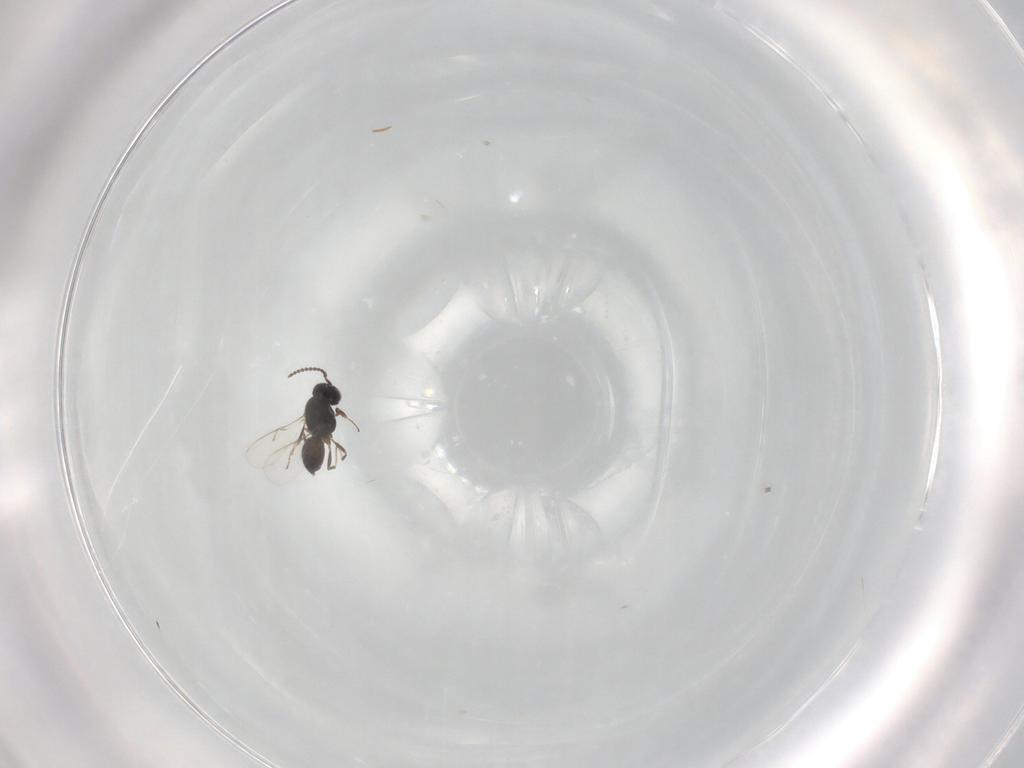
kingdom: Animalia
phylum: Arthropoda
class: Insecta
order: Hymenoptera
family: Scelionidae
